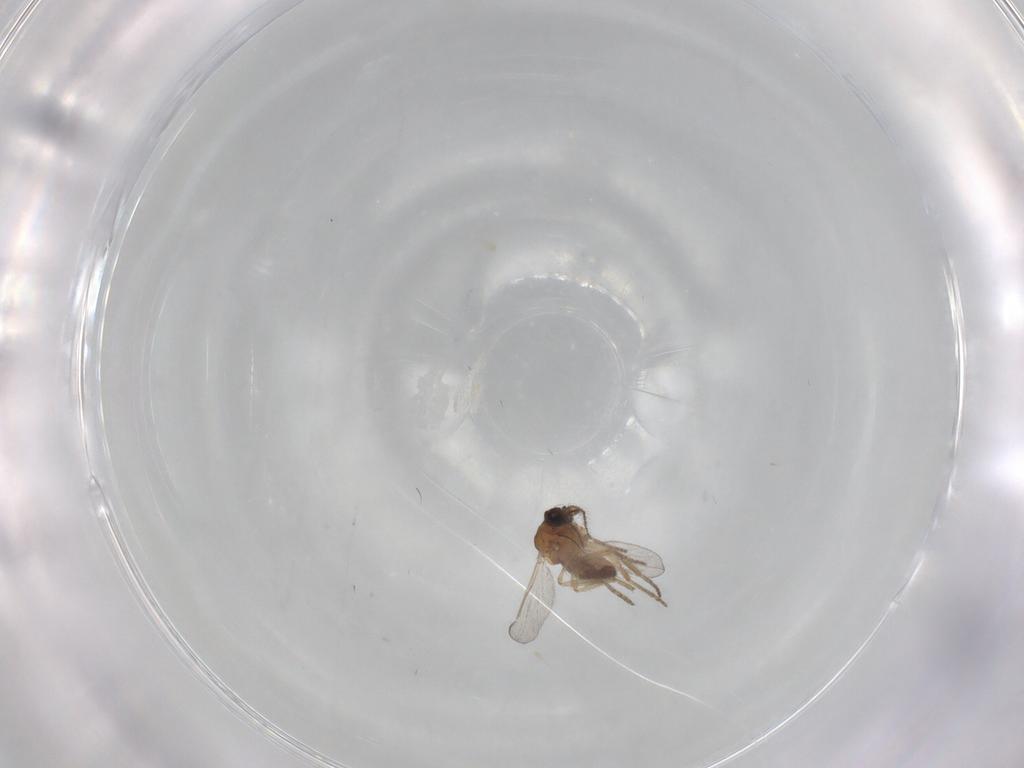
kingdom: Animalia
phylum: Arthropoda
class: Insecta
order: Diptera
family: Ceratopogonidae
